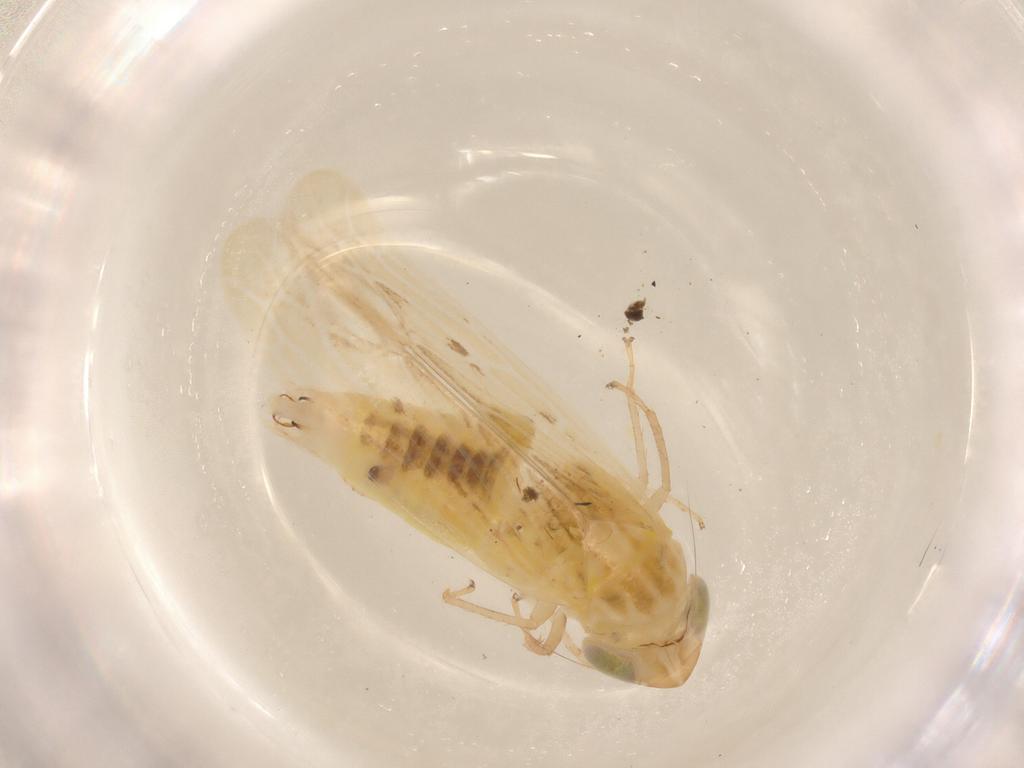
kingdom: Animalia
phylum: Arthropoda
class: Insecta
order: Hemiptera
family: Cicadellidae
